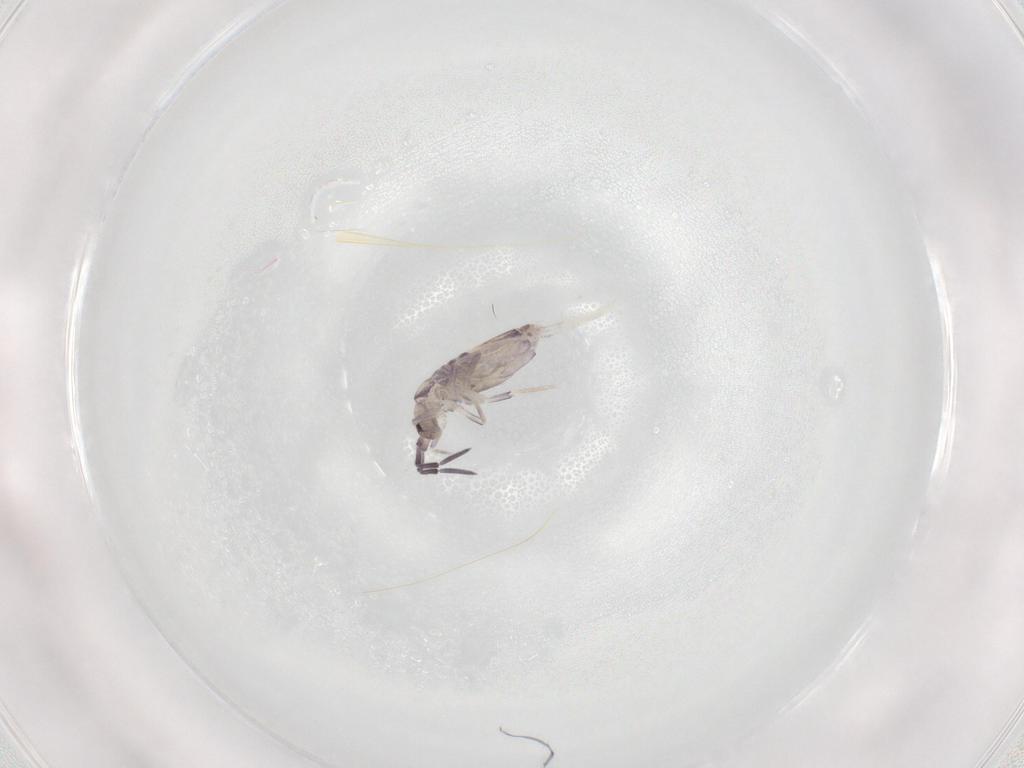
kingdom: Animalia
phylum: Arthropoda
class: Collembola
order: Poduromorpha
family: Hypogastruridae
